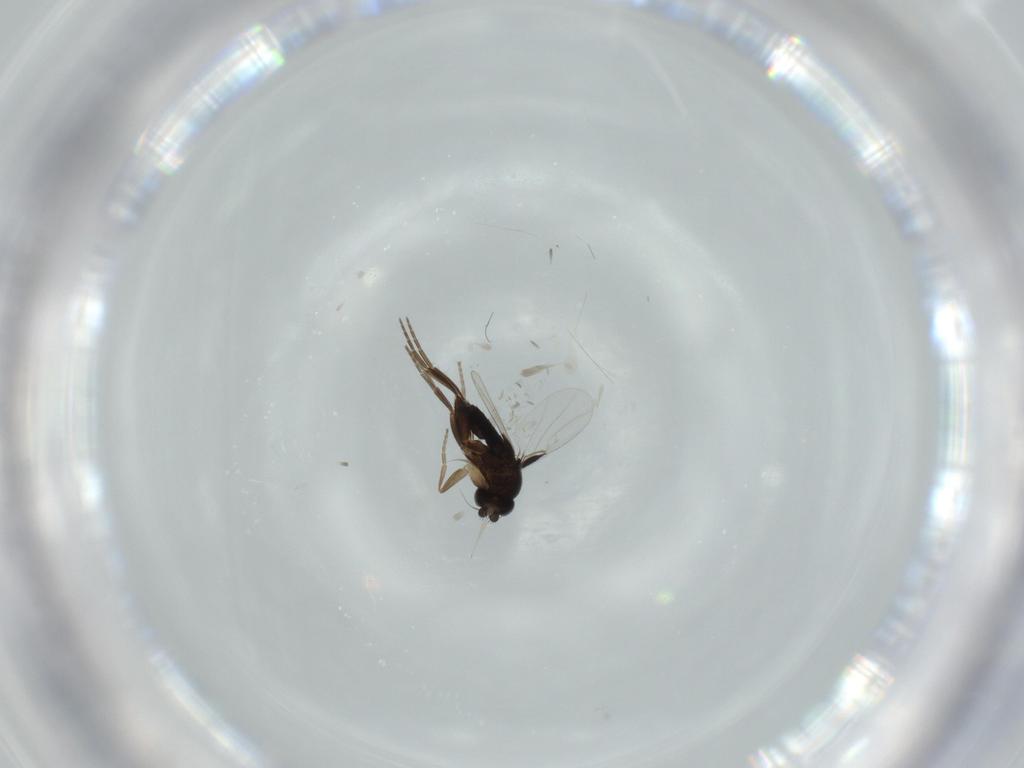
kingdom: Animalia
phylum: Arthropoda
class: Insecta
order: Diptera
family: Phoridae
